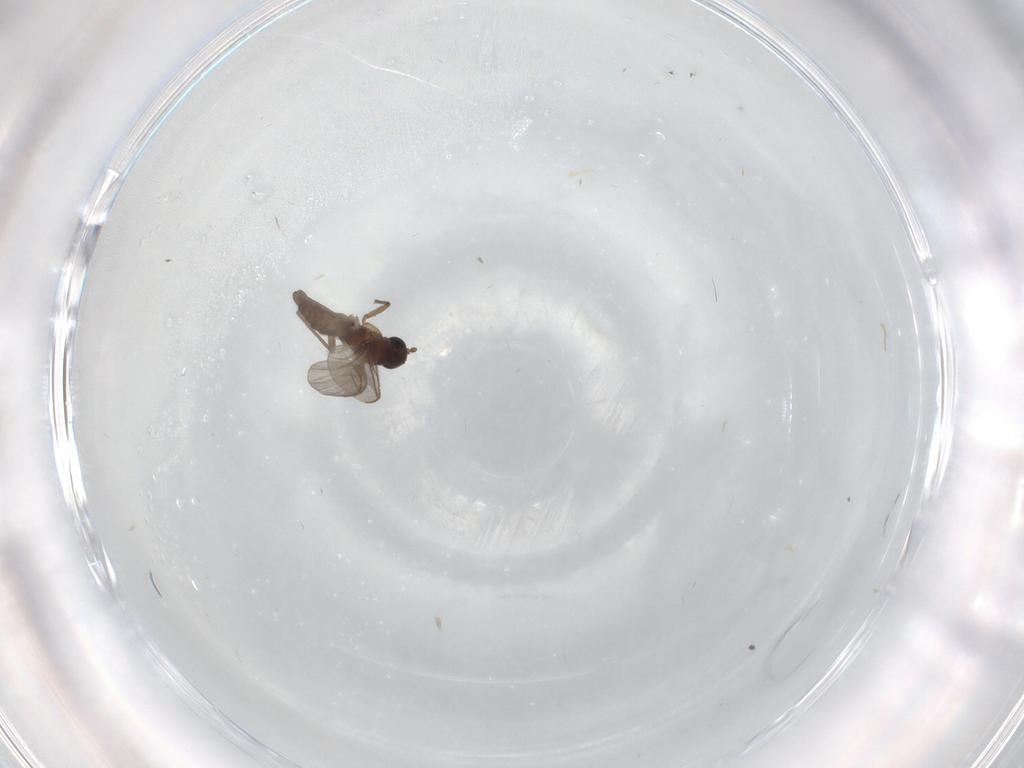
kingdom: Animalia
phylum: Arthropoda
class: Insecta
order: Diptera
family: Cecidomyiidae
